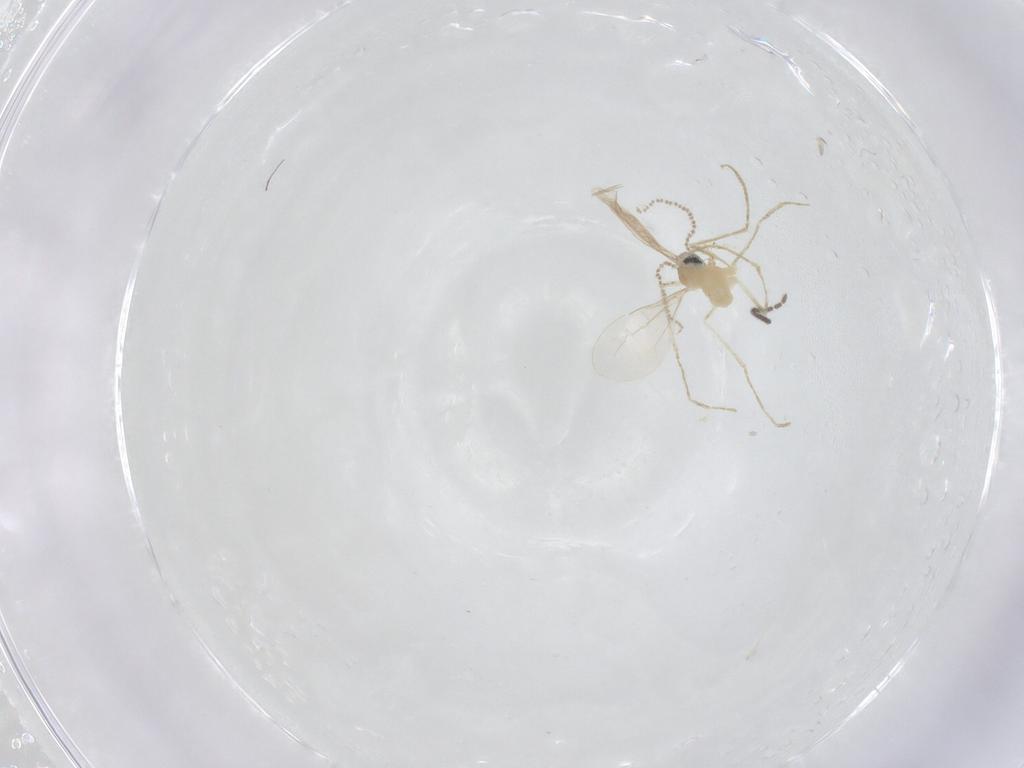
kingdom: Animalia
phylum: Arthropoda
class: Insecta
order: Diptera
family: Cecidomyiidae
